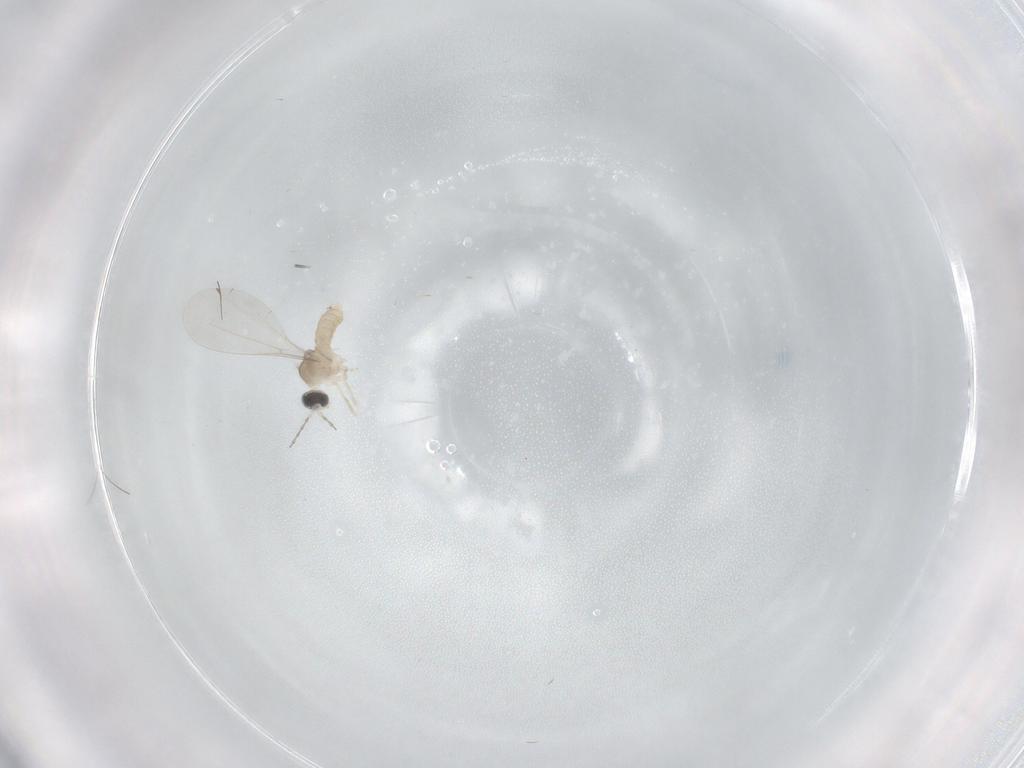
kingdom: Animalia
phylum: Arthropoda
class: Insecta
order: Diptera
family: Cecidomyiidae
